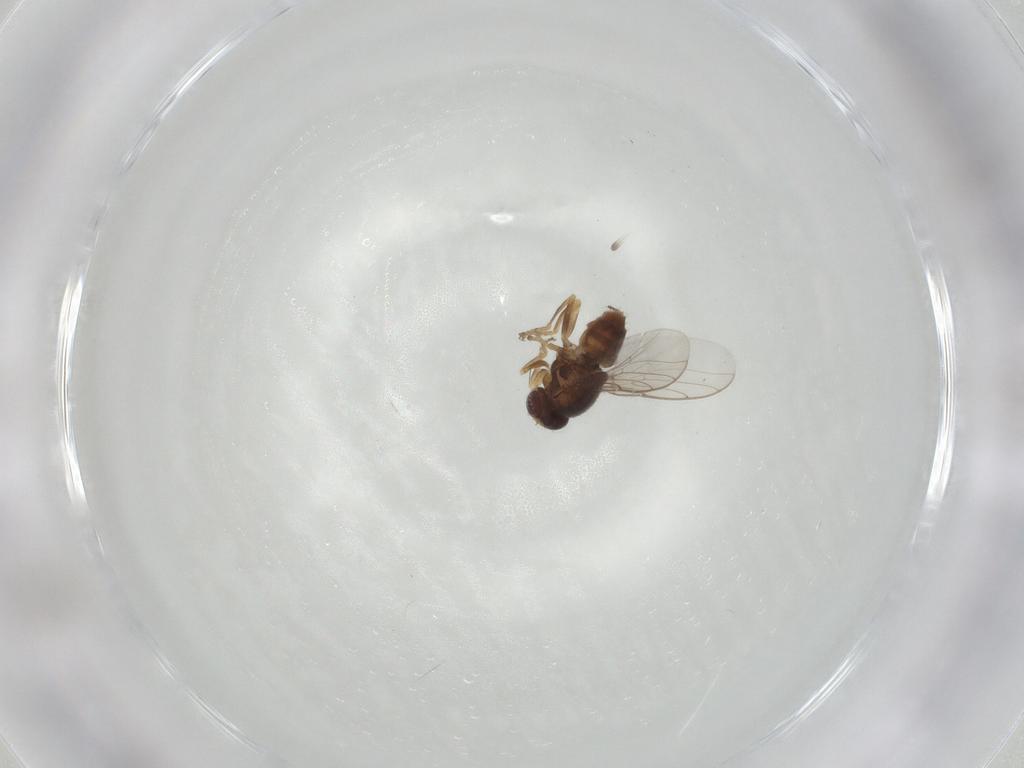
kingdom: Animalia
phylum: Arthropoda
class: Insecta
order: Diptera
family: Chloropidae
